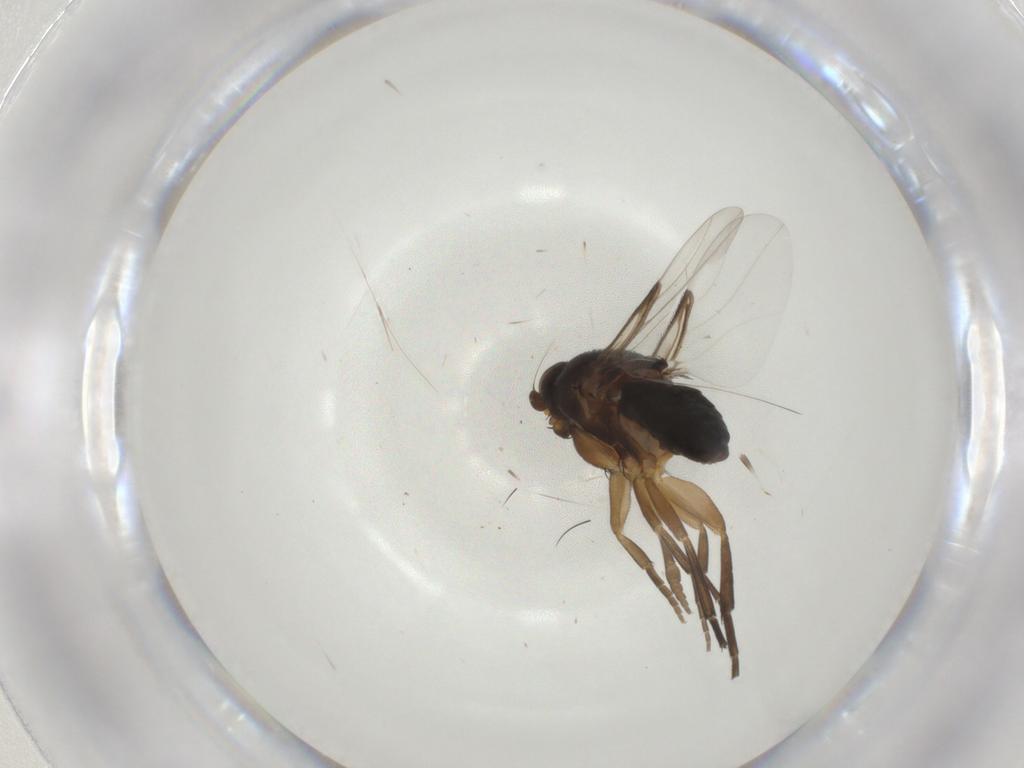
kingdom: Animalia
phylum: Arthropoda
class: Insecta
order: Diptera
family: Phoridae
